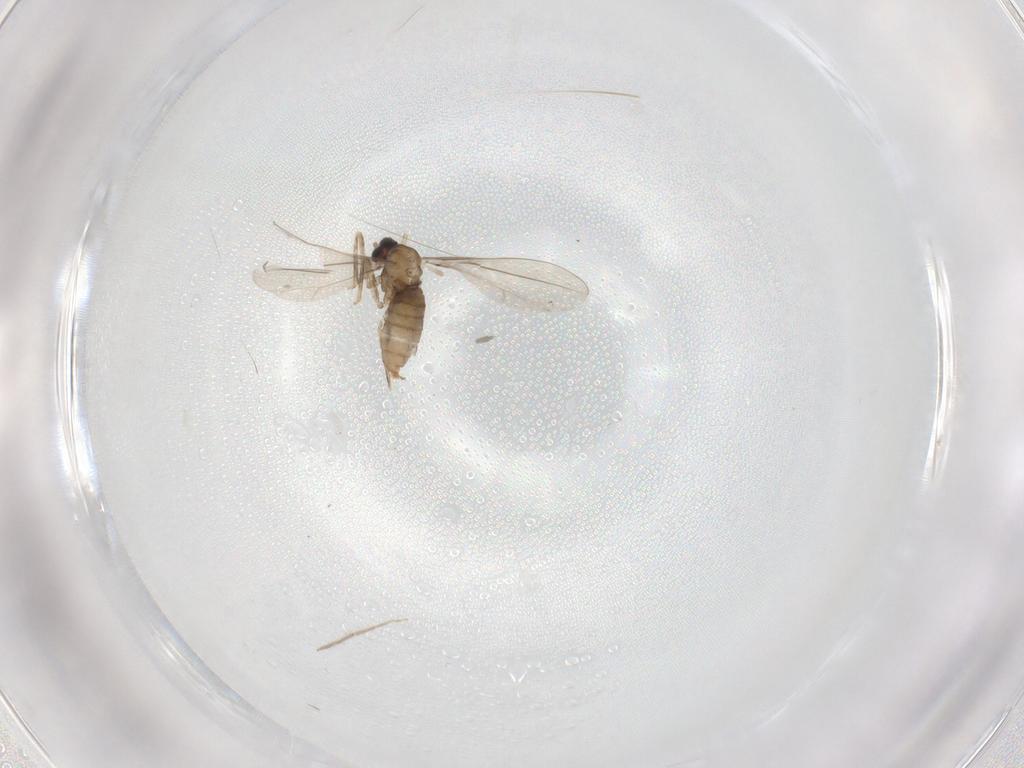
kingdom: Animalia
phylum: Arthropoda
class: Insecta
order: Diptera
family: Cecidomyiidae
